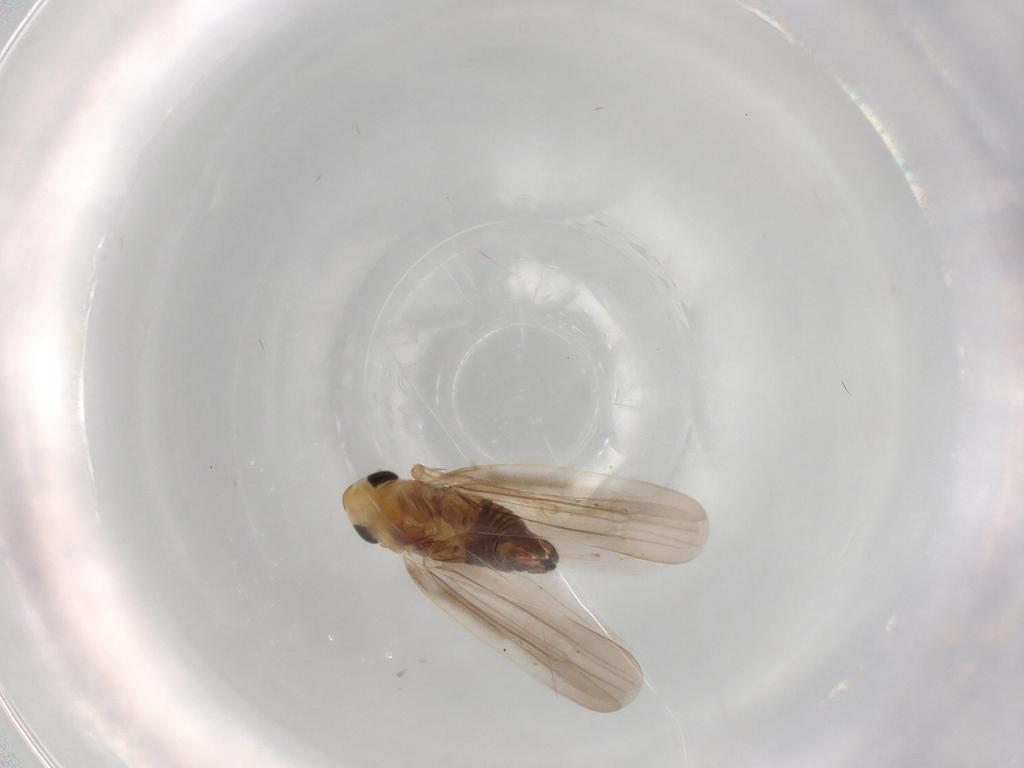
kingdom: Animalia
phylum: Arthropoda
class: Insecta
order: Hemiptera
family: Cicadellidae
